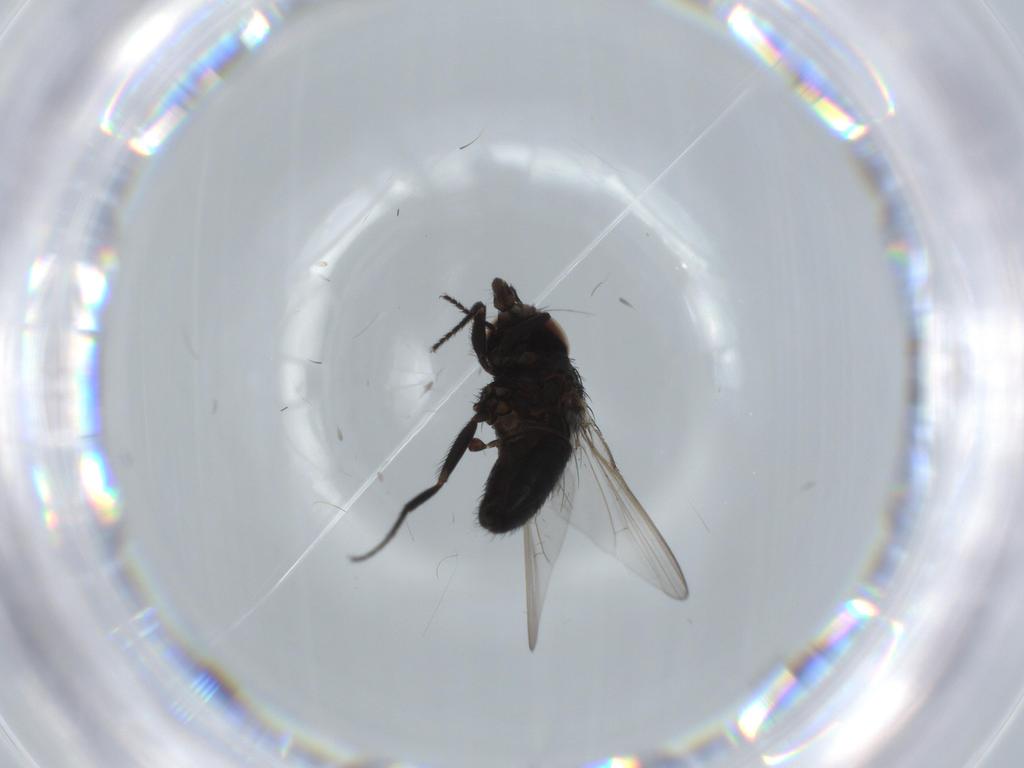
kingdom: Animalia
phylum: Arthropoda
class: Insecta
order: Diptera
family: Milichiidae
